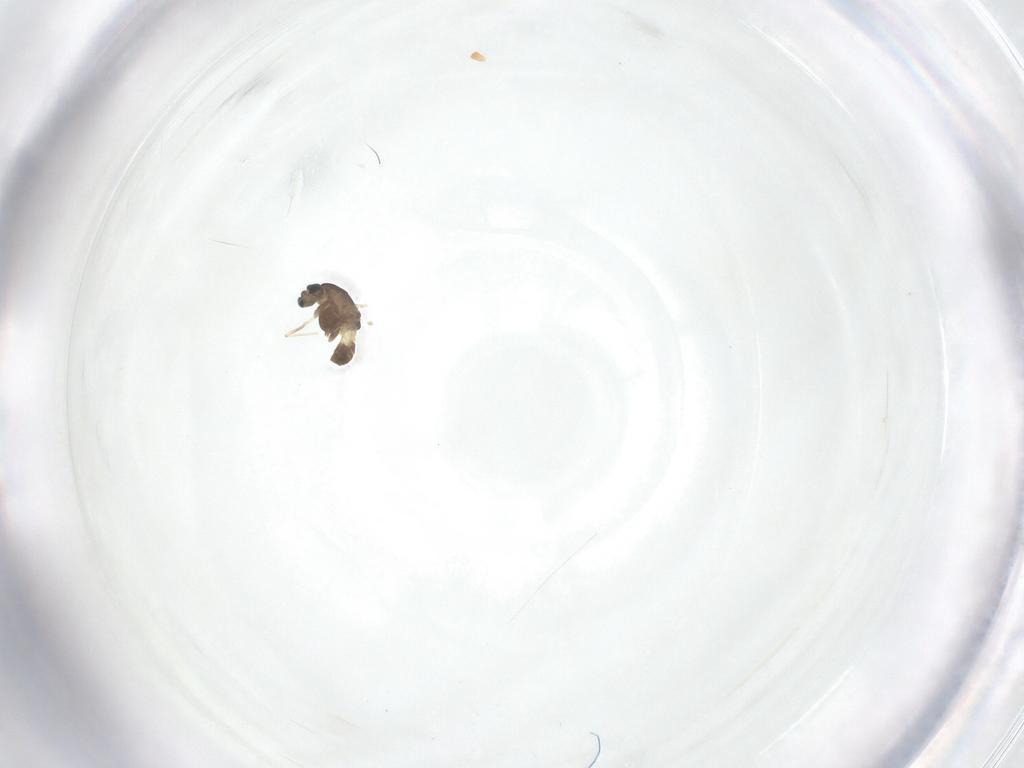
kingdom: Animalia
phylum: Arthropoda
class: Insecta
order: Diptera
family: Chironomidae
